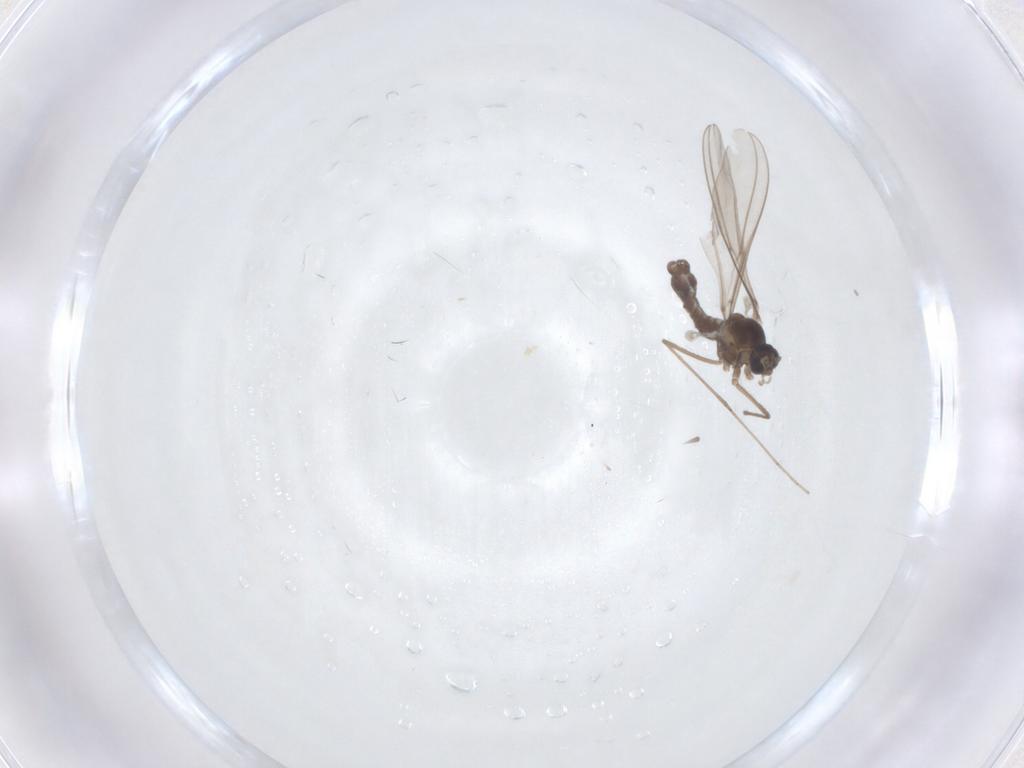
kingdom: Animalia
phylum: Arthropoda
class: Insecta
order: Diptera
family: Cecidomyiidae
